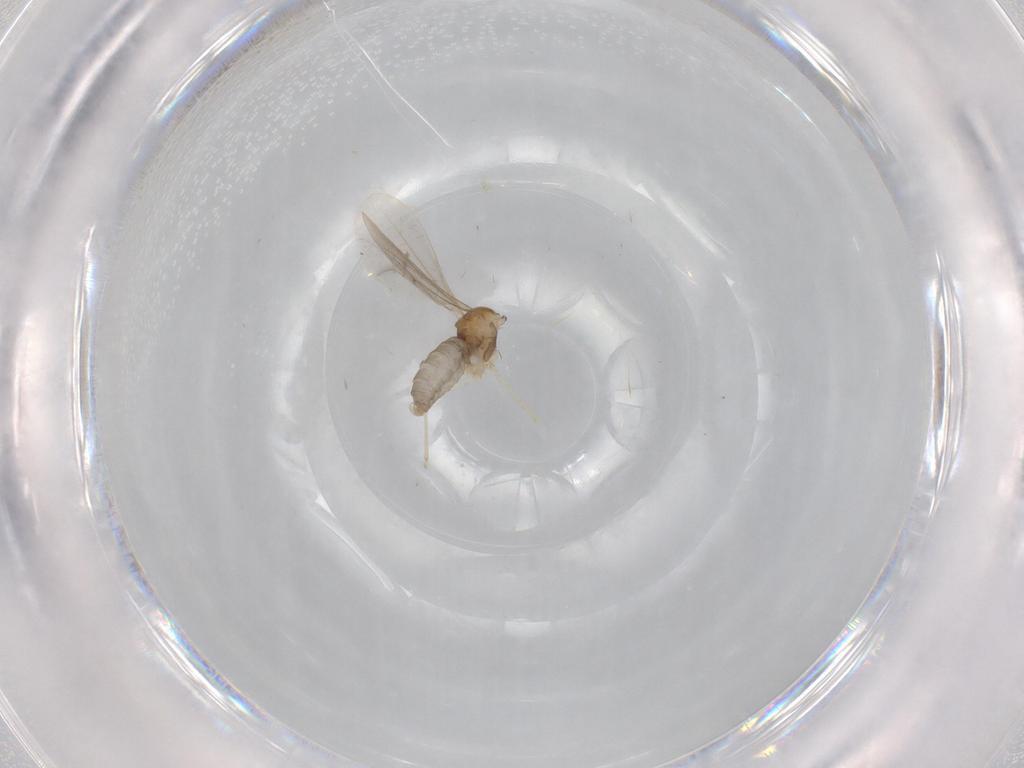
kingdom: Animalia
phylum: Arthropoda
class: Insecta
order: Diptera
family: Cecidomyiidae
